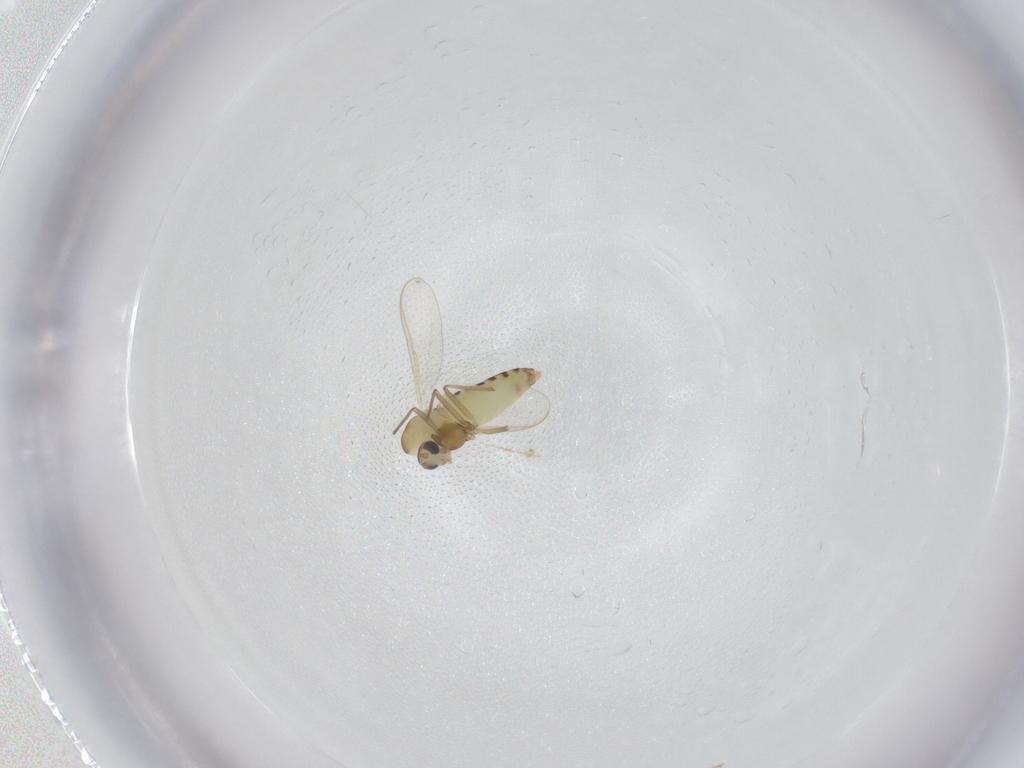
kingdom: Animalia
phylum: Arthropoda
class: Insecta
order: Diptera
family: Chironomidae
